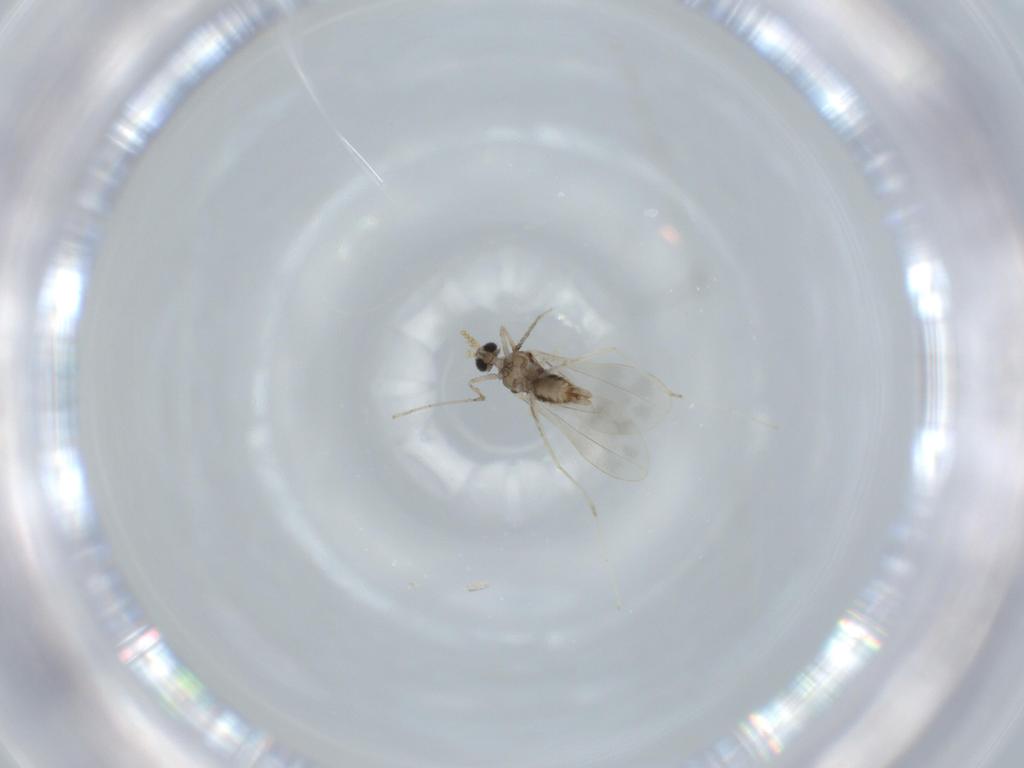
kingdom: Animalia
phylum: Arthropoda
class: Insecta
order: Diptera
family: Cecidomyiidae
